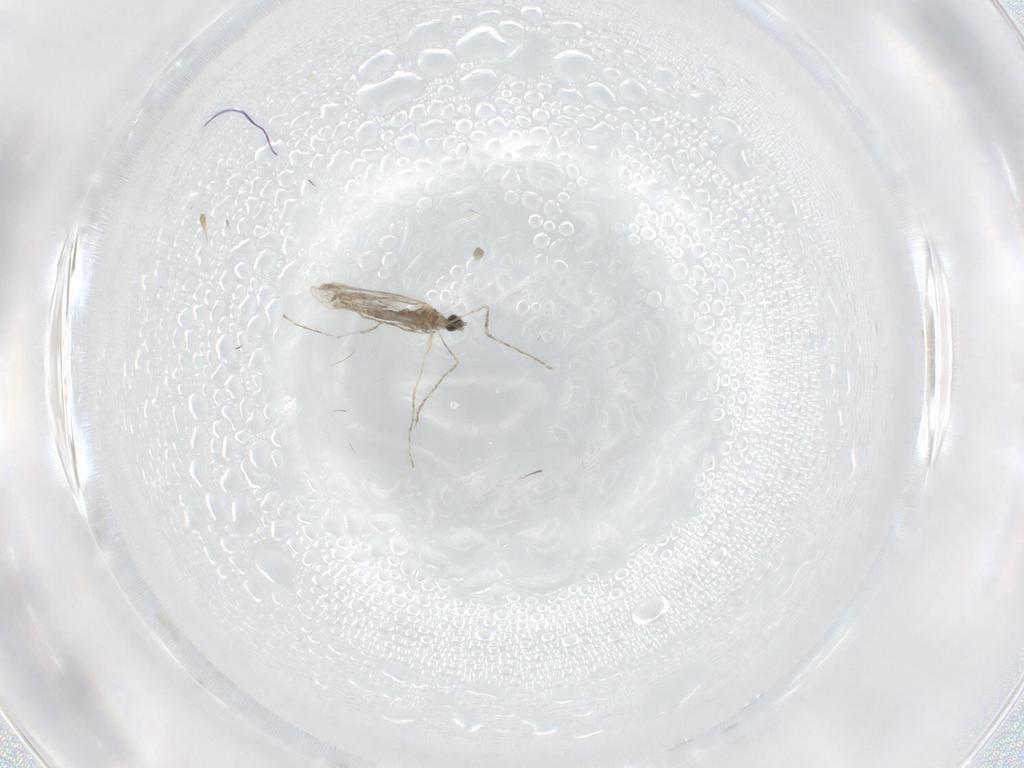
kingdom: Animalia
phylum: Arthropoda
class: Insecta
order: Diptera
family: Cecidomyiidae
